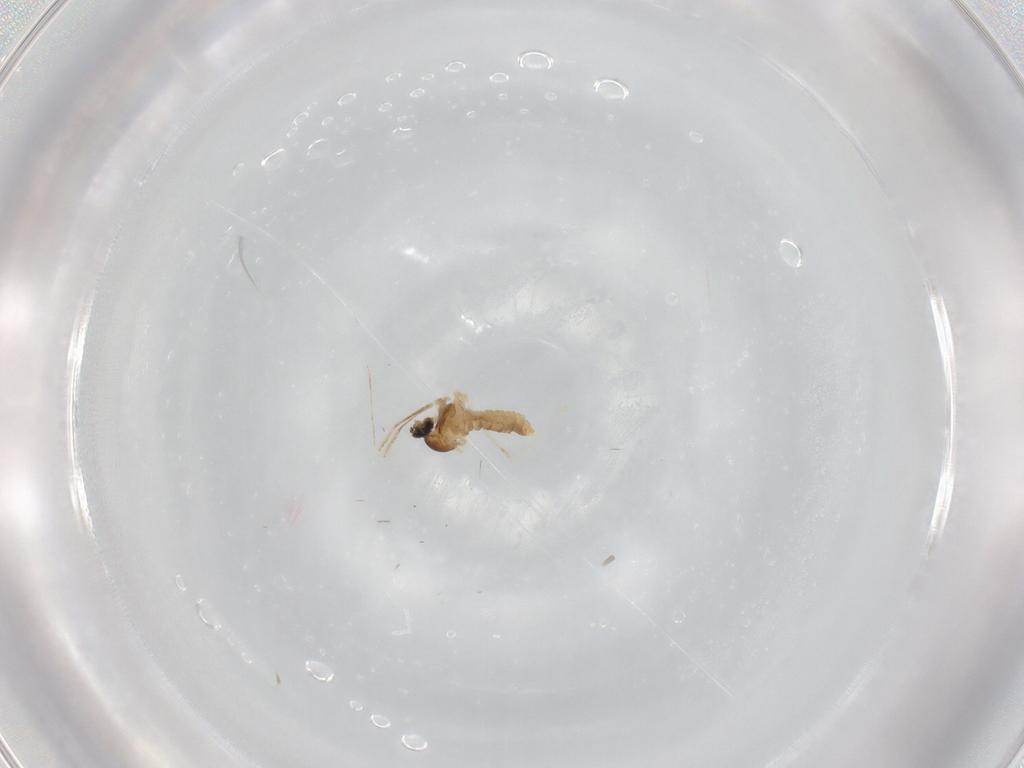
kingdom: Animalia
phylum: Arthropoda
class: Insecta
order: Diptera
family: Cecidomyiidae
